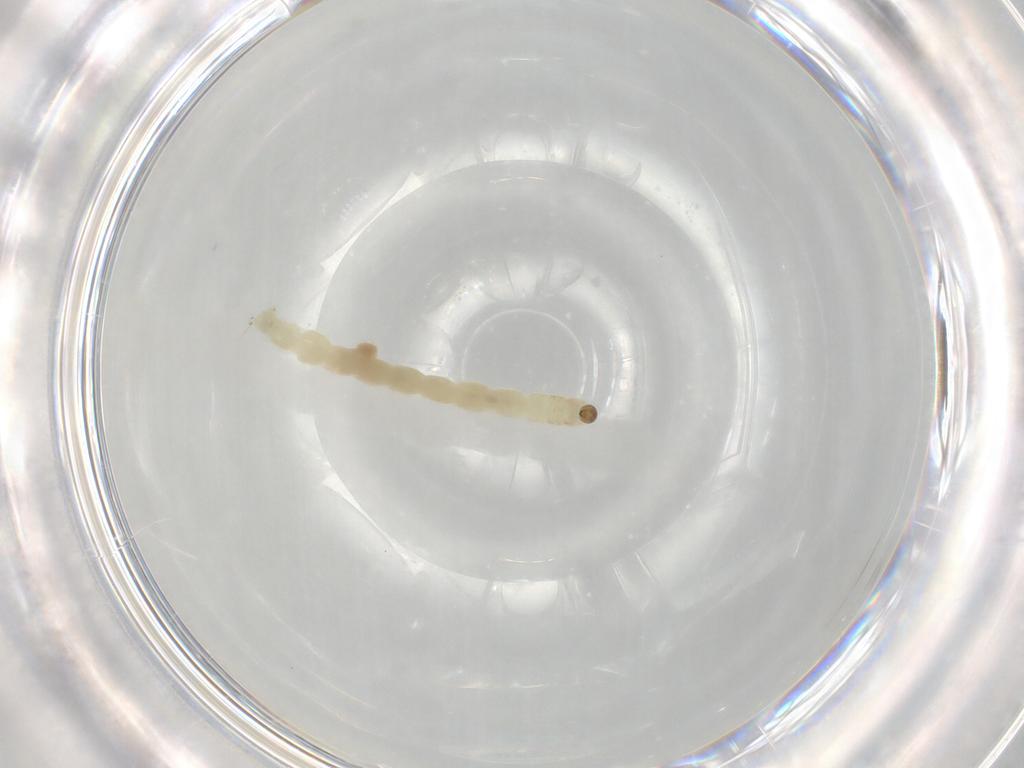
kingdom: Animalia
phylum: Arthropoda
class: Insecta
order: Diptera
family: Chironomidae
